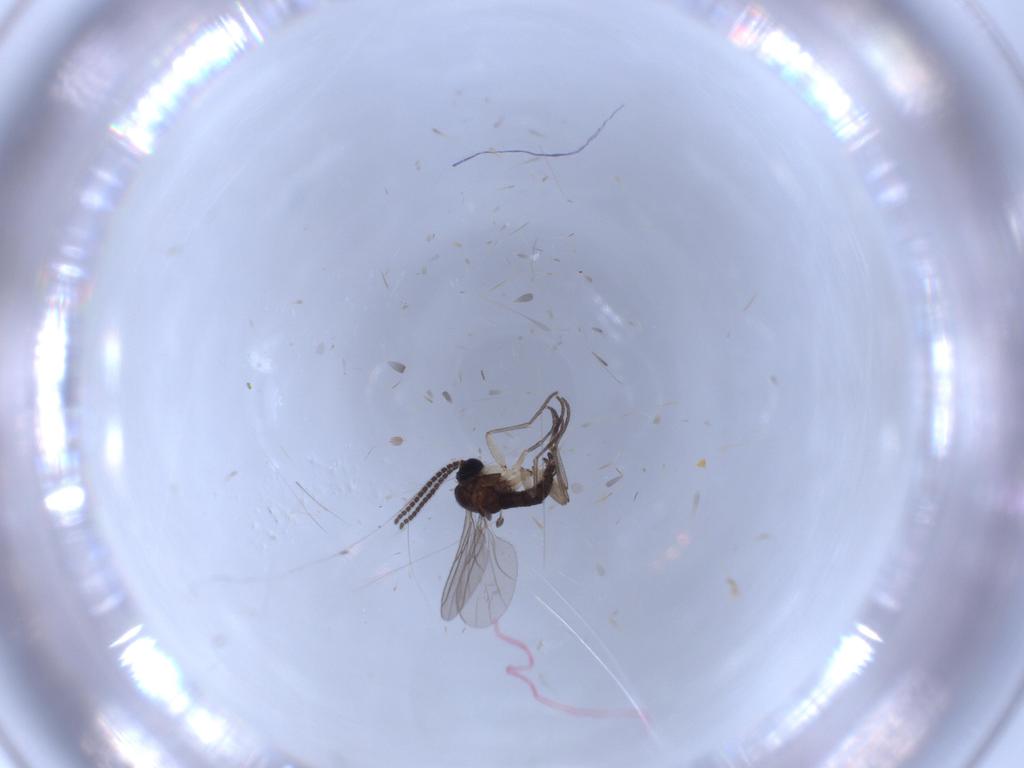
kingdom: Animalia
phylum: Arthropoda
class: Insecta
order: Diptera
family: Sciaridae
